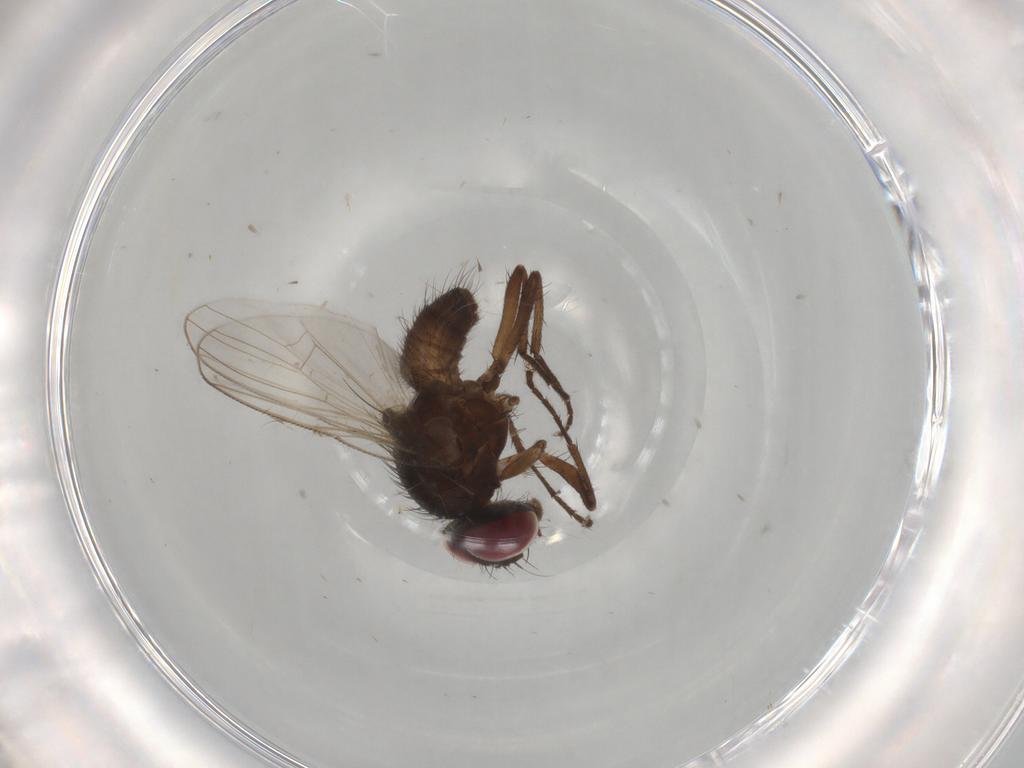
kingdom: Animalia
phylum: Arthropoda
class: Insecta
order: Diptera
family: Muscidae
